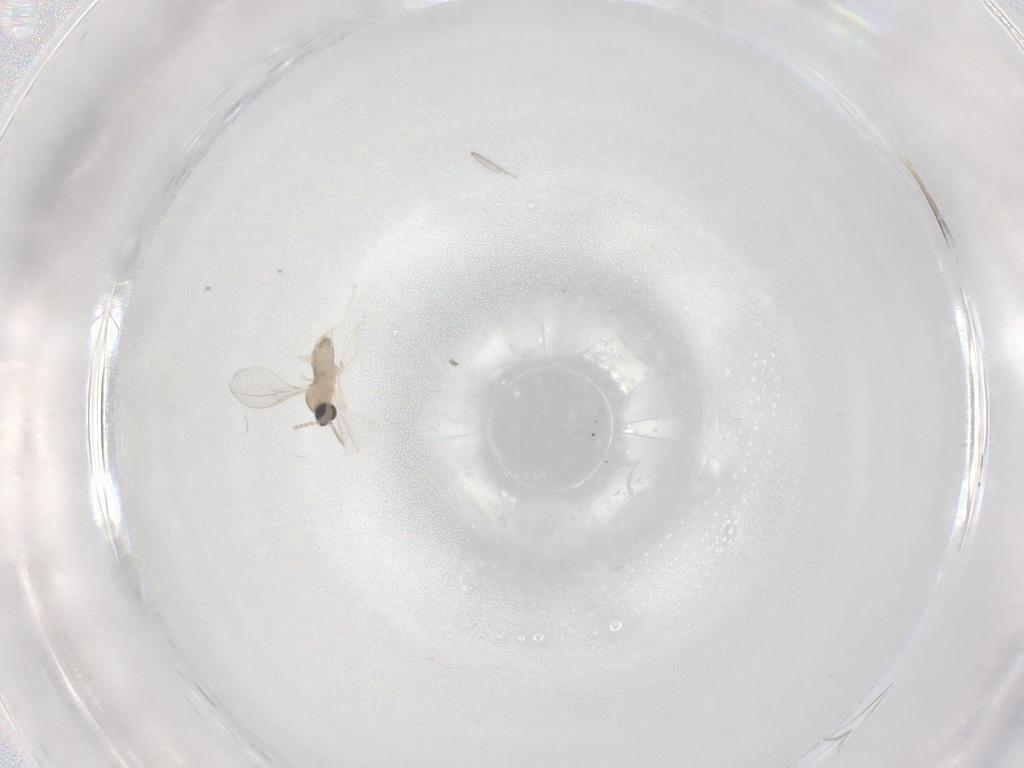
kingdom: Animalia
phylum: Arthropoda
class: Insecta
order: Diptera
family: Cecidomyiidae
